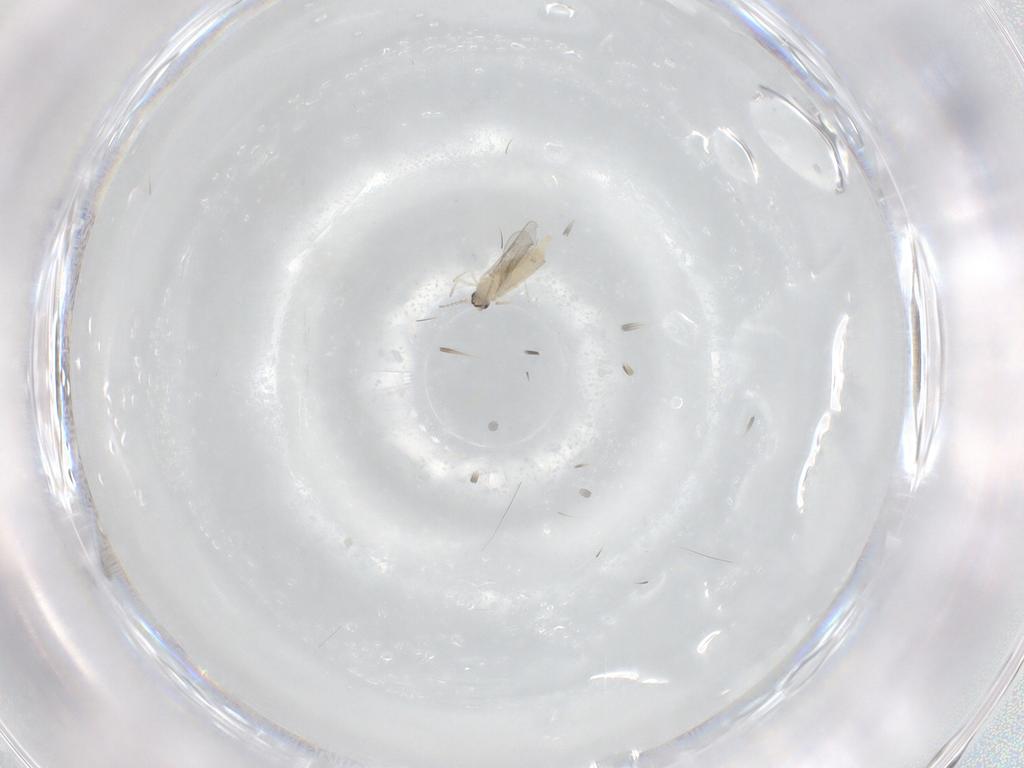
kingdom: Animalia
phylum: Arthropoda
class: Insecta
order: Diptera
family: Cecidomyiidae
